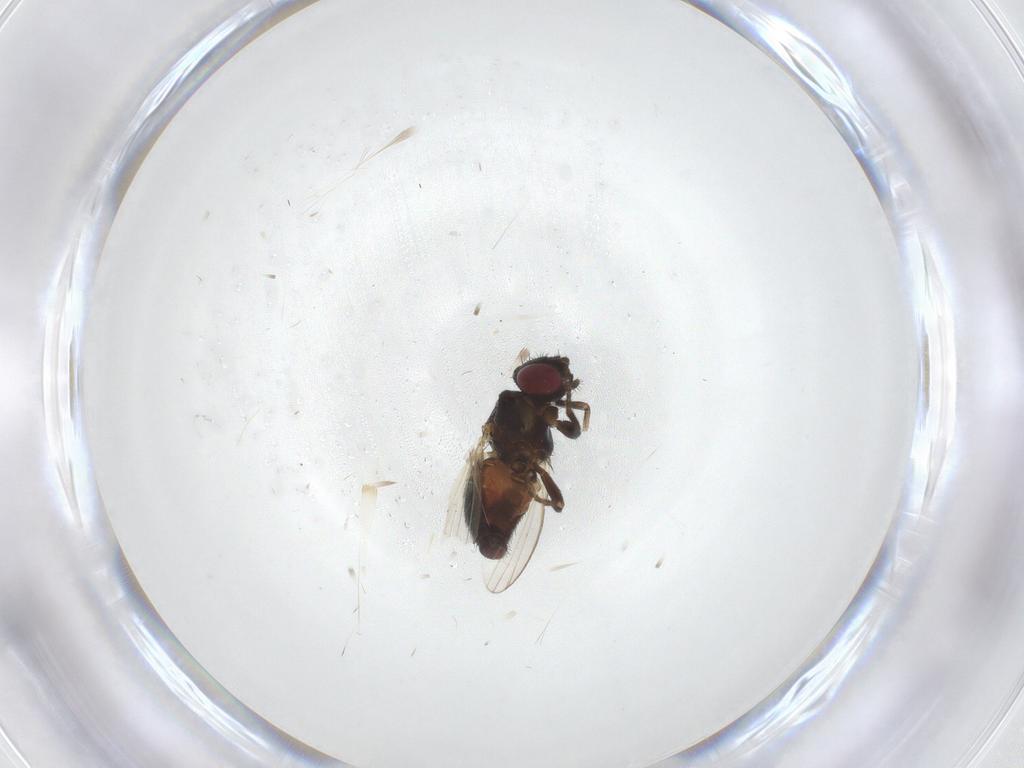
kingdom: Animalia
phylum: Arthropoda
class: Insecta
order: Diptera
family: Milichiidae
